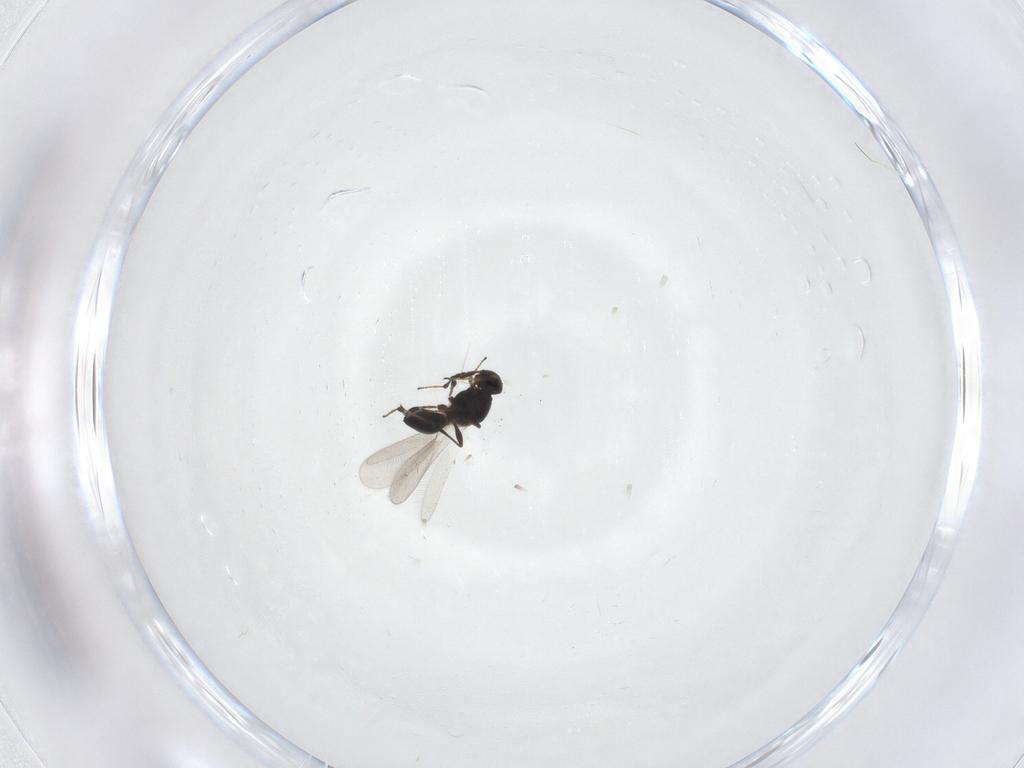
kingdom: Animalia
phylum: Arthropoda
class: Insecta
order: Hymenoptera
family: Platygastridae
